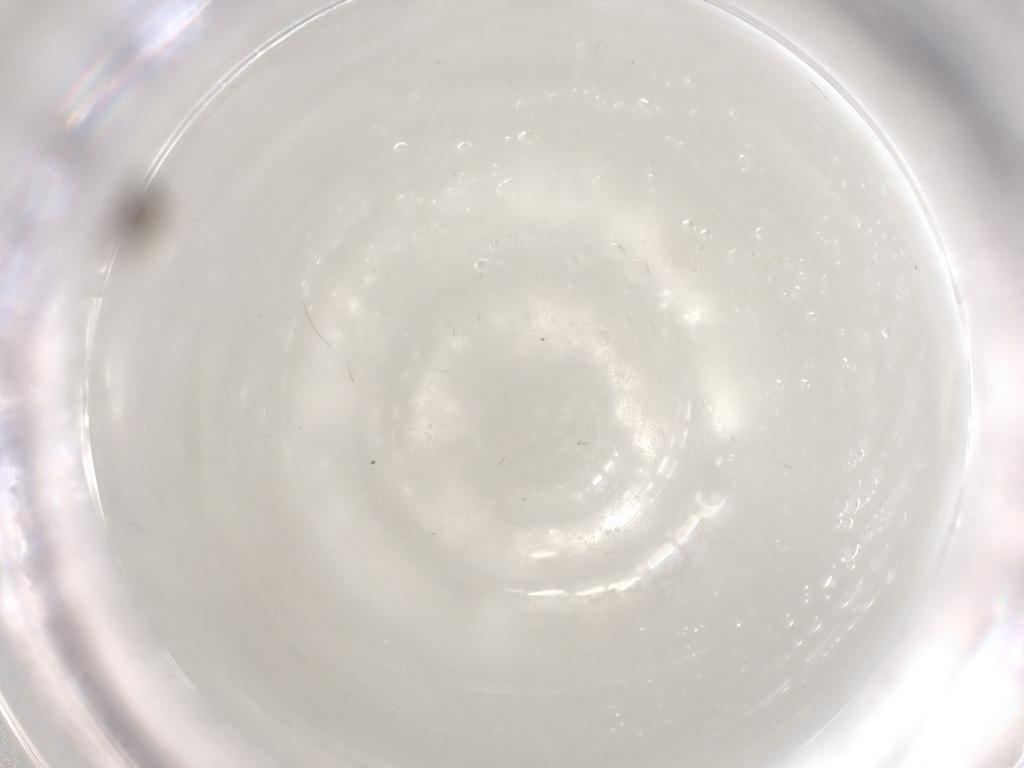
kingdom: Animalia
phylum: Arthropoda
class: Insecta
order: Diptera
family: Tachinidae
